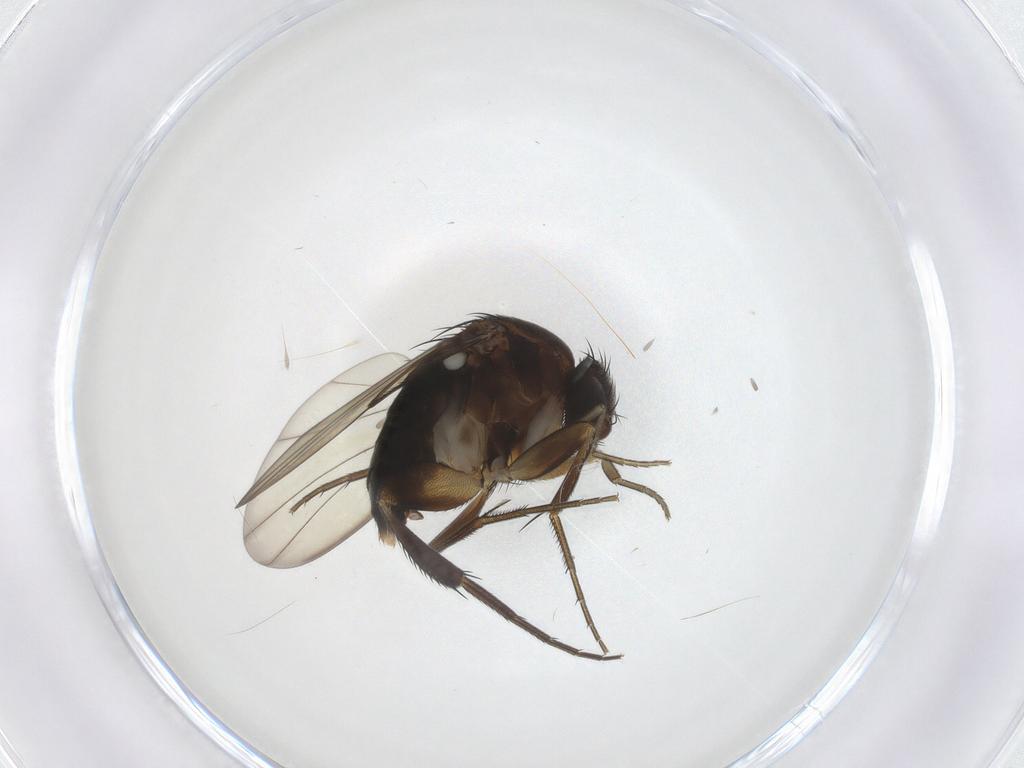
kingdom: Animalia
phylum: Arthropoda
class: Insecta
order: Diptera
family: Phoridae
